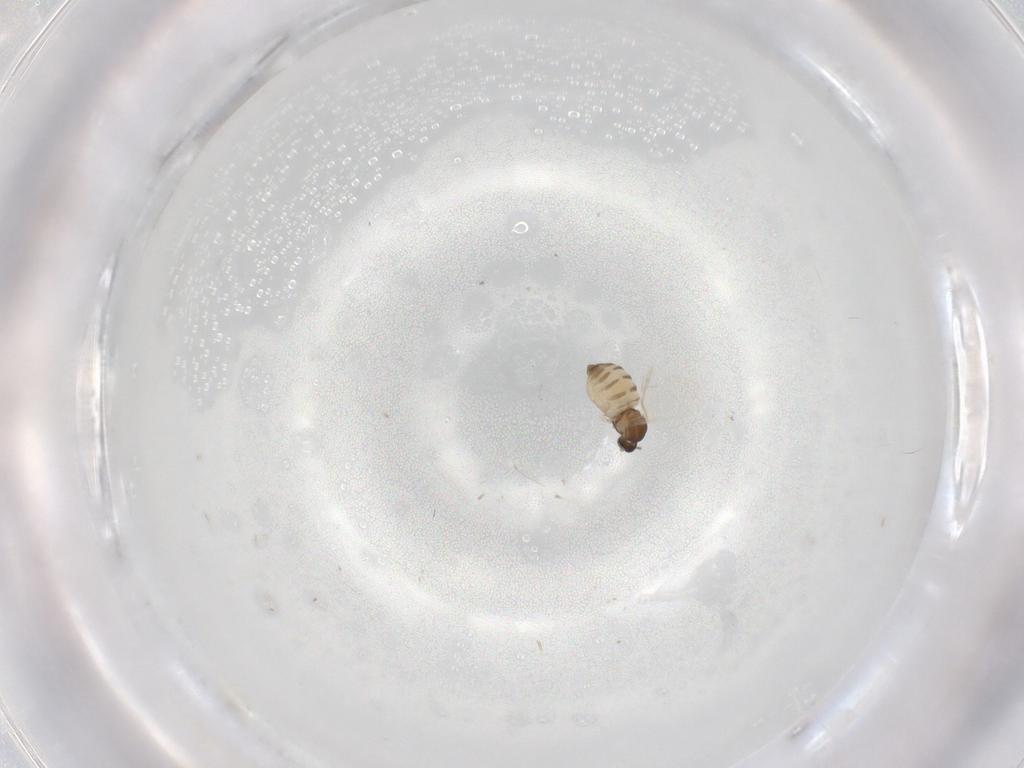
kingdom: Animalia
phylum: Arthropoda
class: Insecta
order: Diptera
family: Cecidomyiidae
